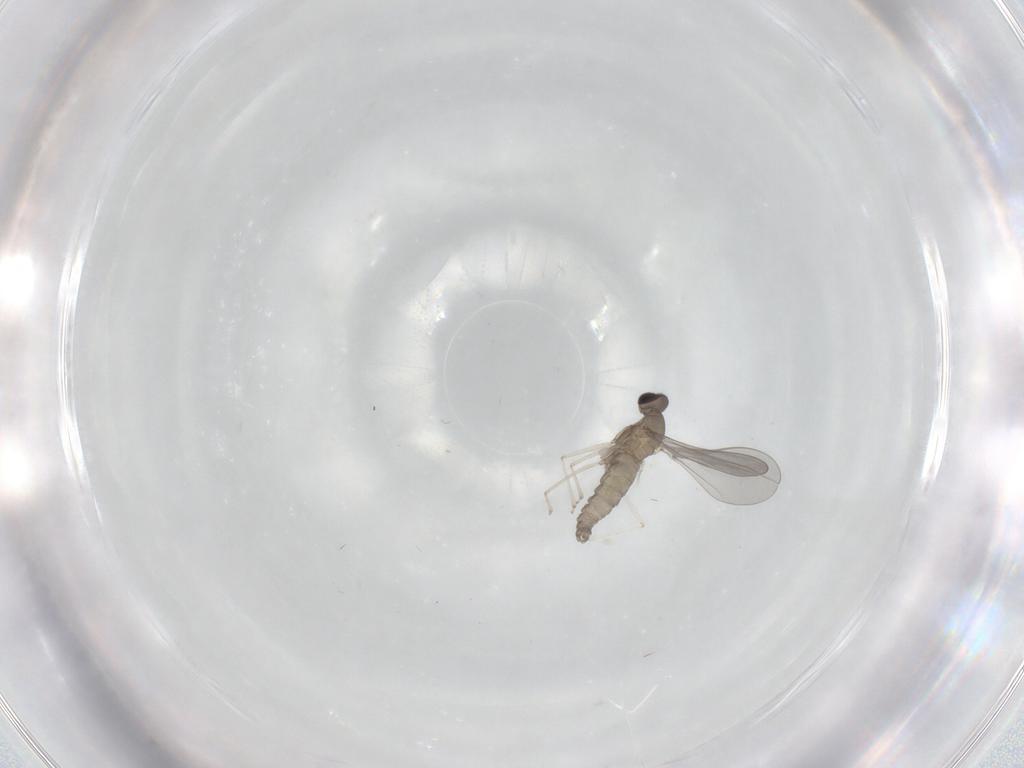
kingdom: Animalia
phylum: Arthropoda
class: Insecta
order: Diptera
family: Cecidomyiidae
